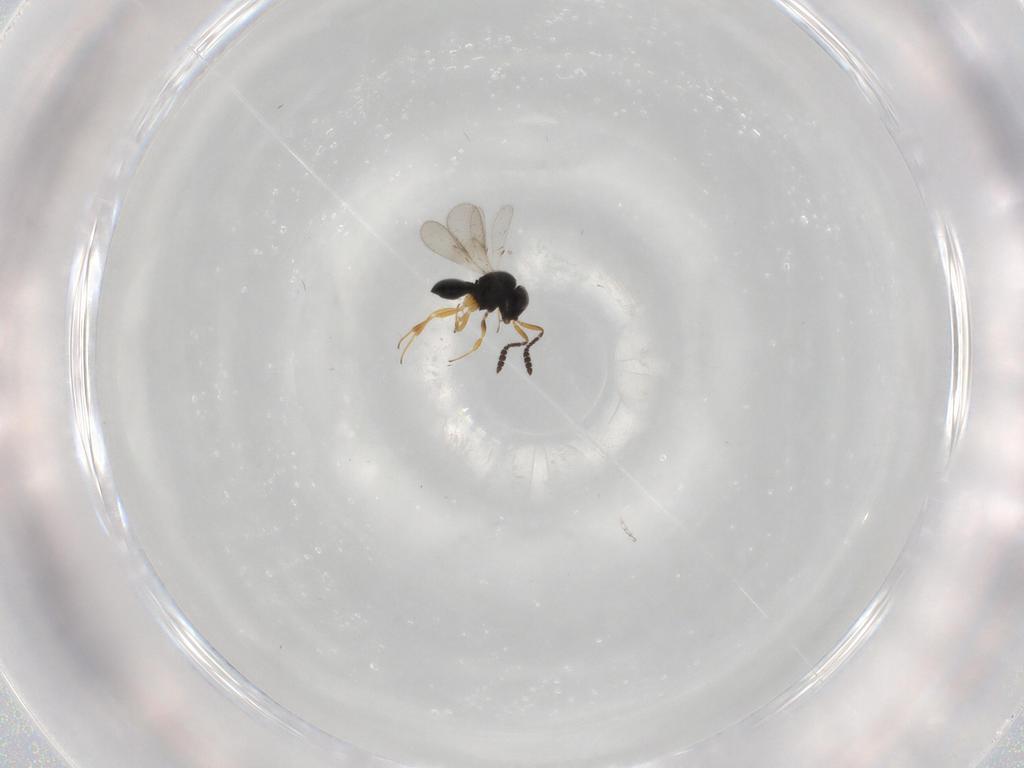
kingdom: Animalia
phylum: Arthropoda
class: Insecta
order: Hymenoptera
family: Scelionidae
